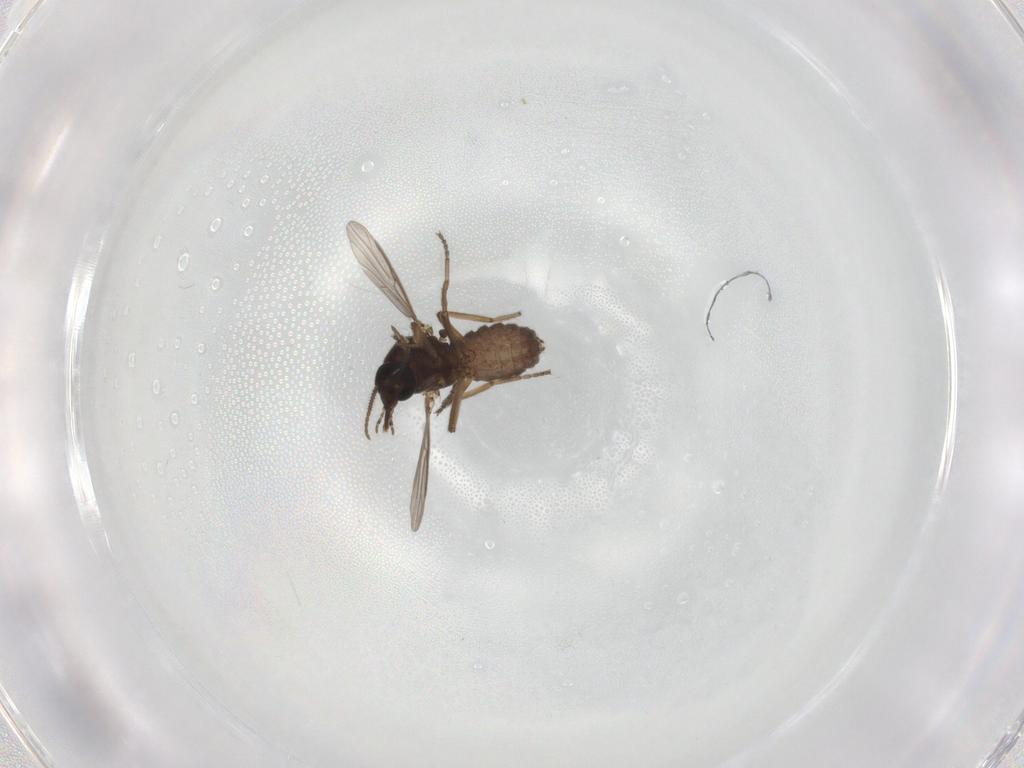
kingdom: Animalia
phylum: Arthropoda
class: Insecta
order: Diptera
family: Ceratopogonidae
